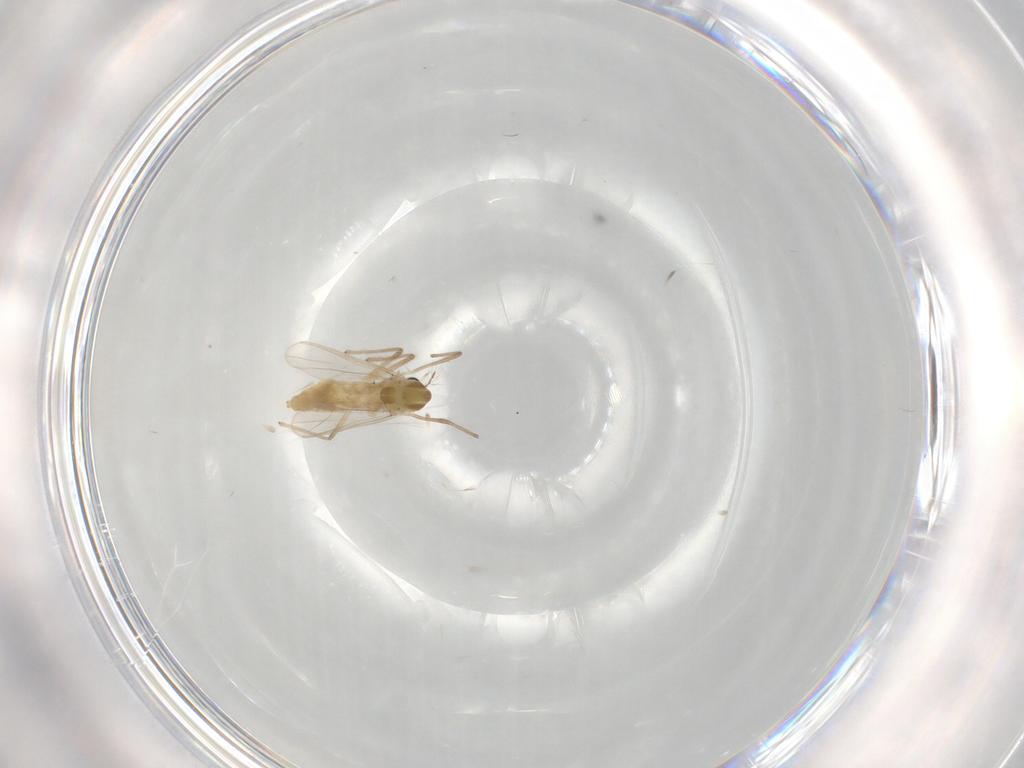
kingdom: Animalia
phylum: Arthropoda
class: Insecta
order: Diptera
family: Chironomidae
